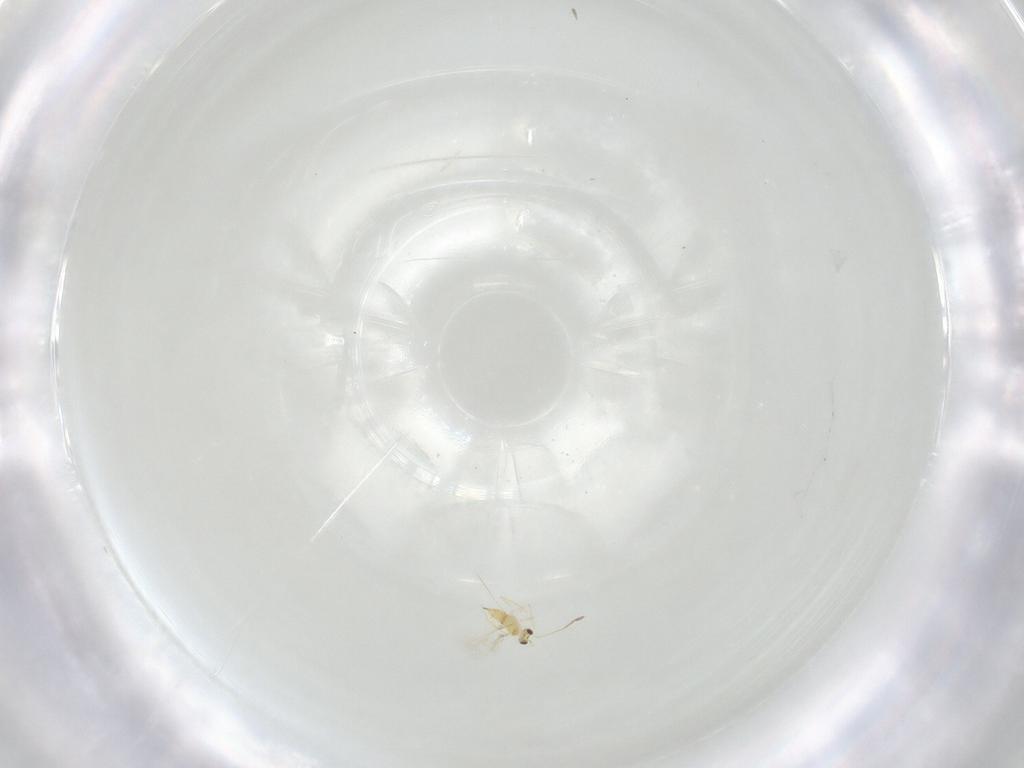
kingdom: Animalia
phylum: Arthropoda
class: Insecta
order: Hymenoptera
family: Mymaridae
